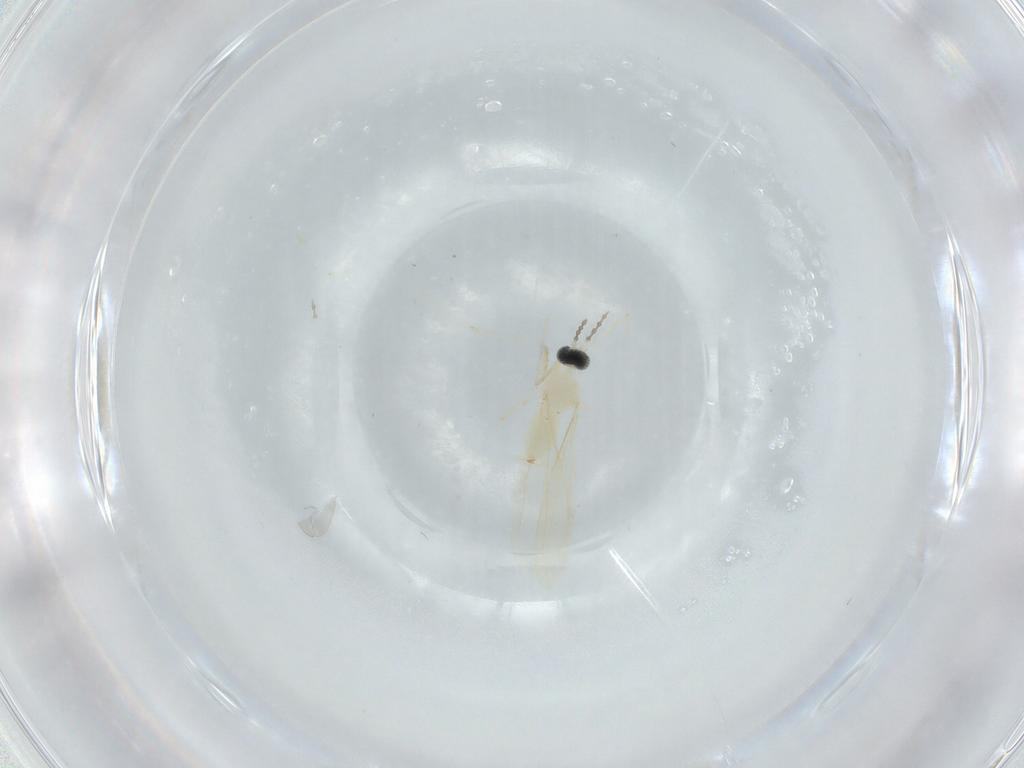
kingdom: Animalia
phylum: Arthropoda
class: Insecta
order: Diptera
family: Cecidomyiidae
